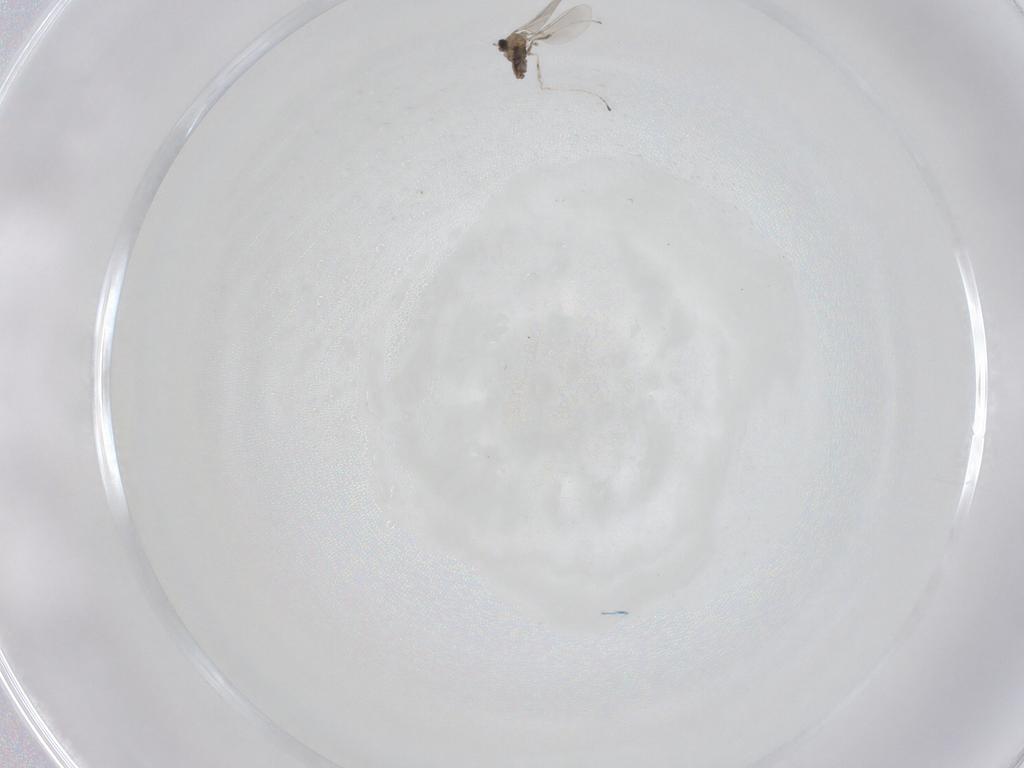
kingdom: Animalia
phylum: Arthropoda
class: Insecta
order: Diptera
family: Cecidomyiidae
